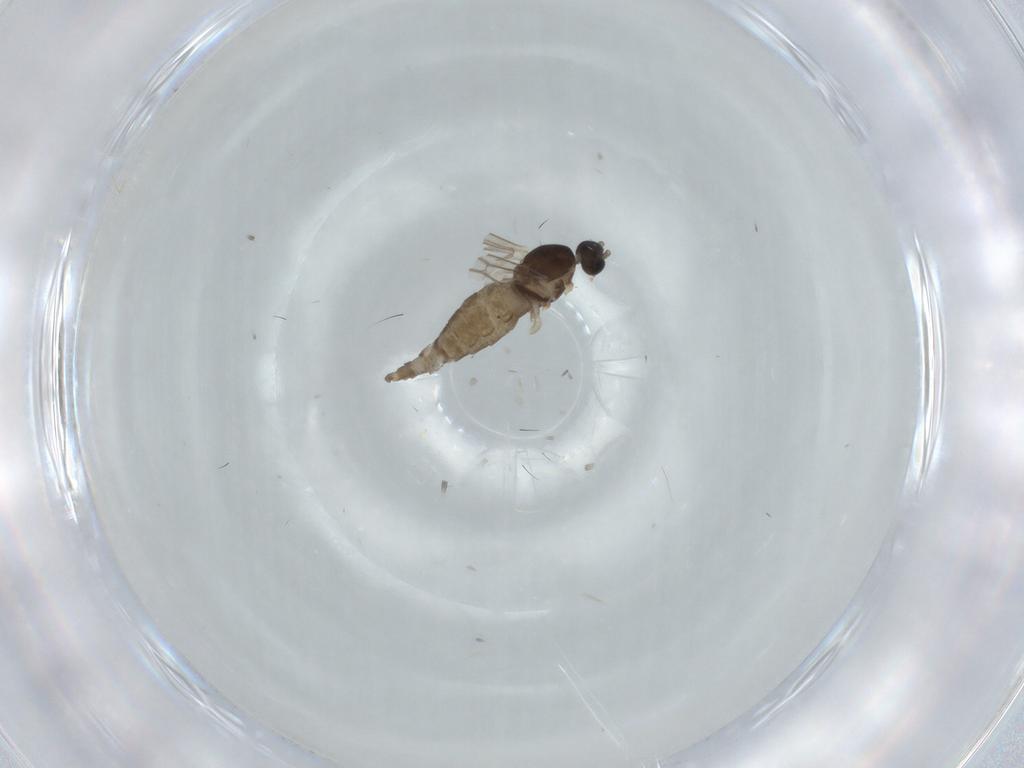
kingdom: Animalia
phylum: Arthropoda
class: Insecta
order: Diptera
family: Cecidomyiidae
